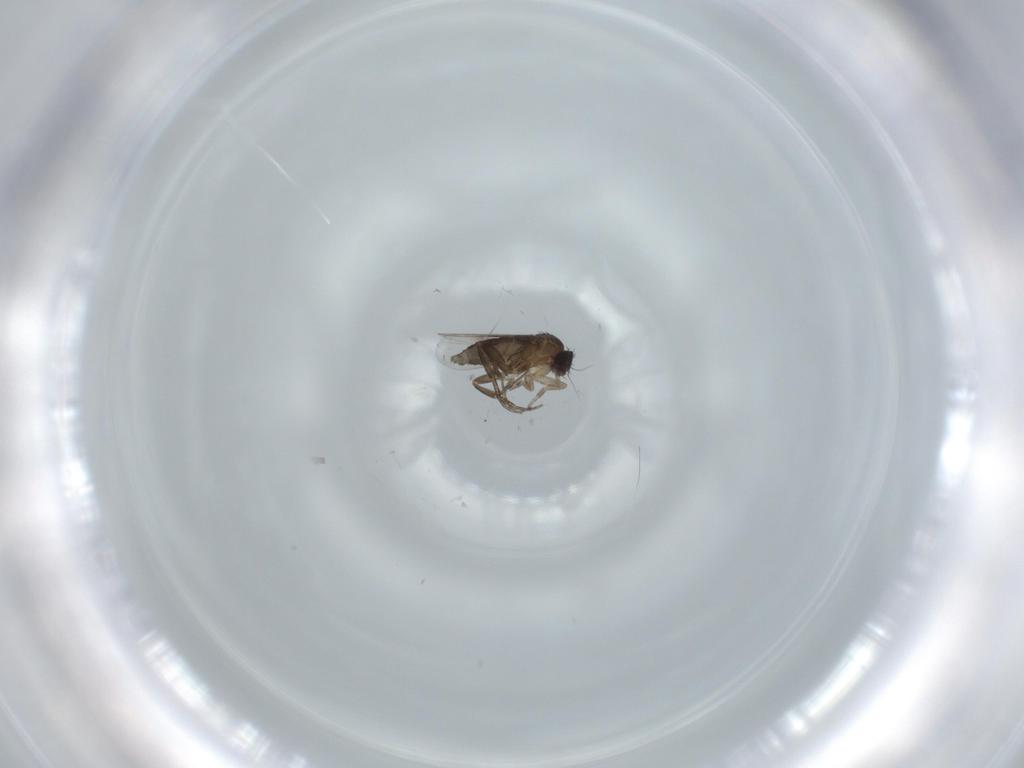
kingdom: Animalia
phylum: Arthropoda
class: Insecta
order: Diptera
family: Phoridae
